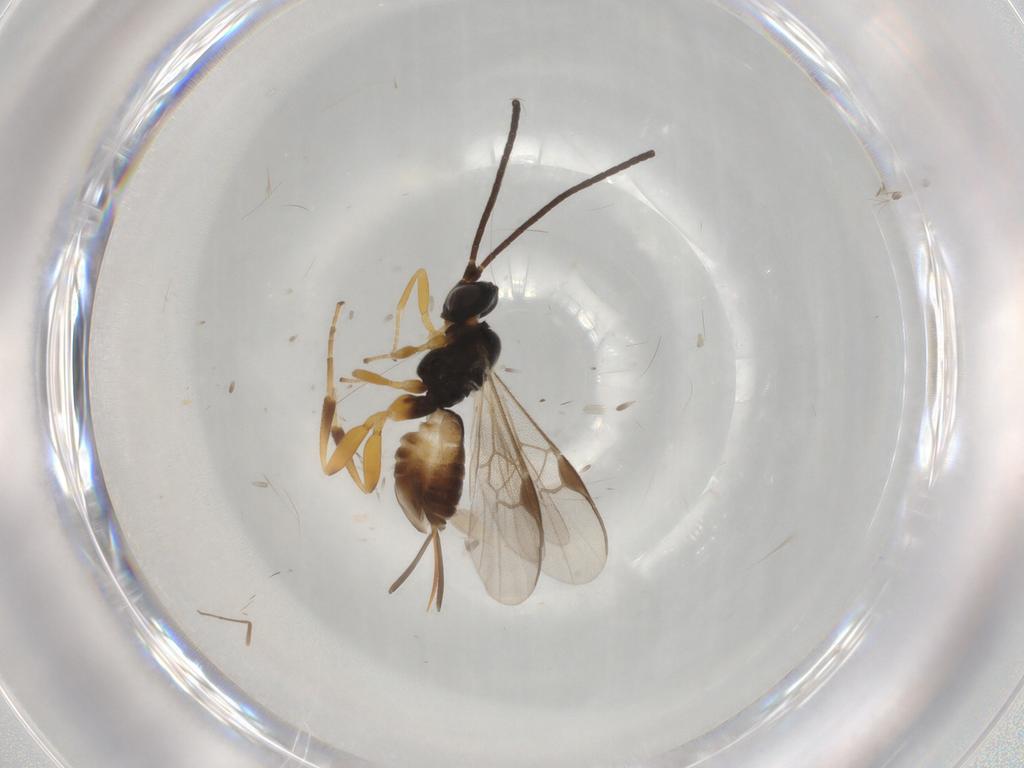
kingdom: Animalia
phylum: Arthropoda
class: Insecta
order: Hymenoptera
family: Braconidae
